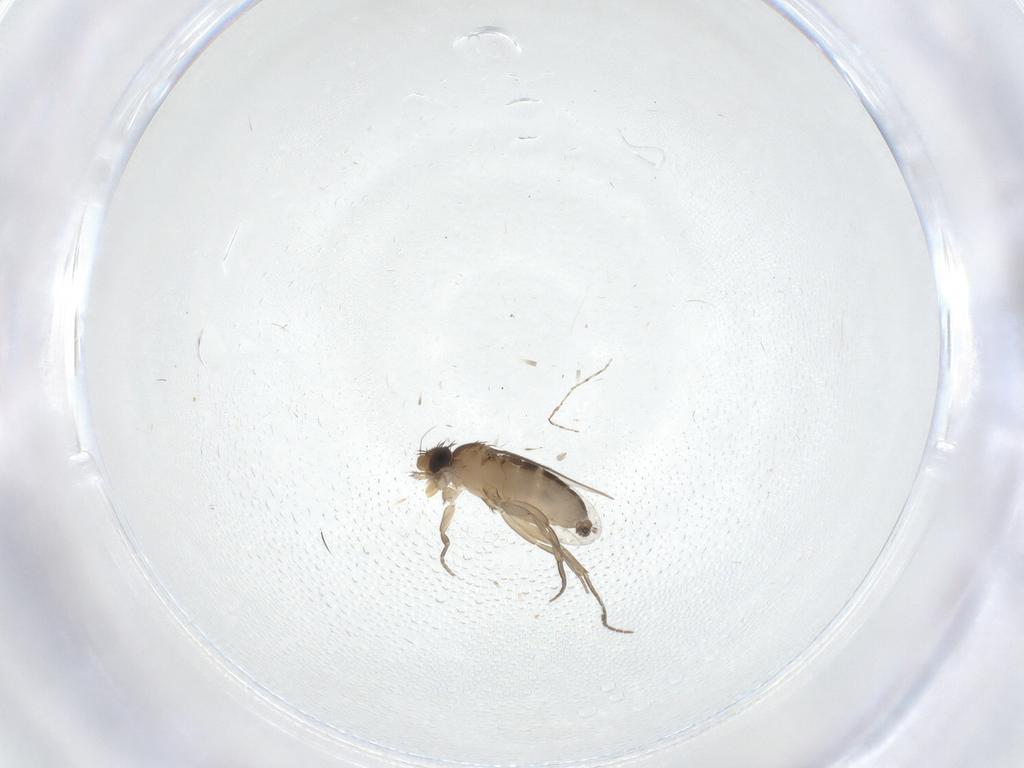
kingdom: Animalia
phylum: Arthropoda
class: Insecta
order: Diptera
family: Phoridae
